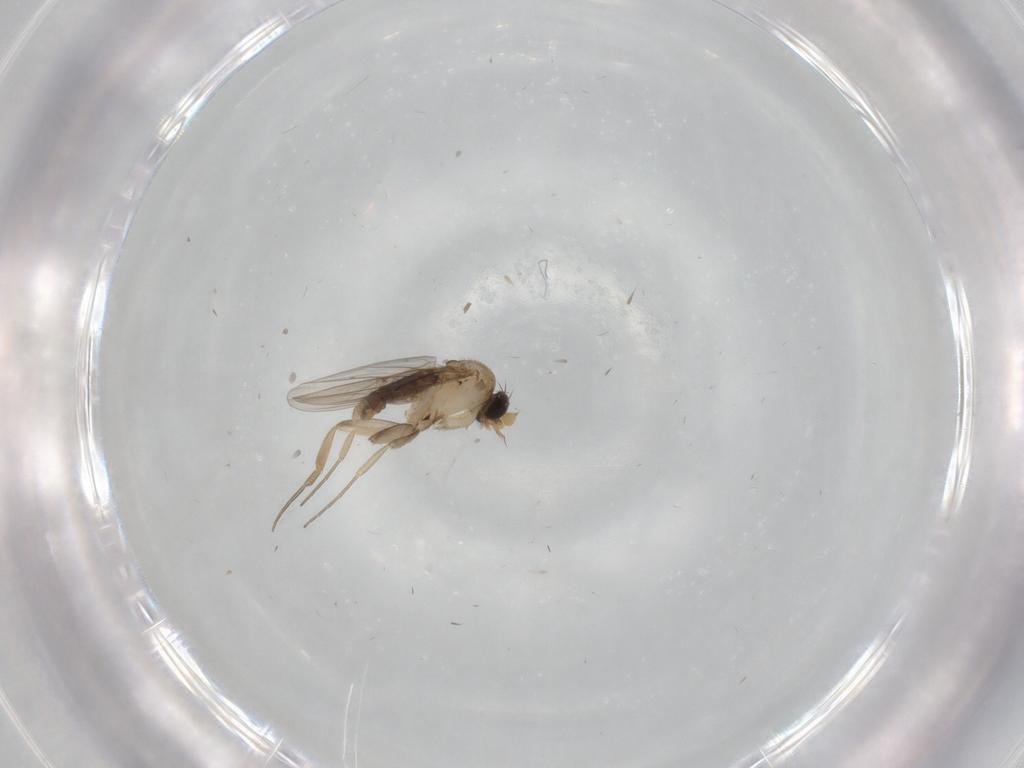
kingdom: Animalia
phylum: Arthropoda
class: Insecta
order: Diptera
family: Phoridae
